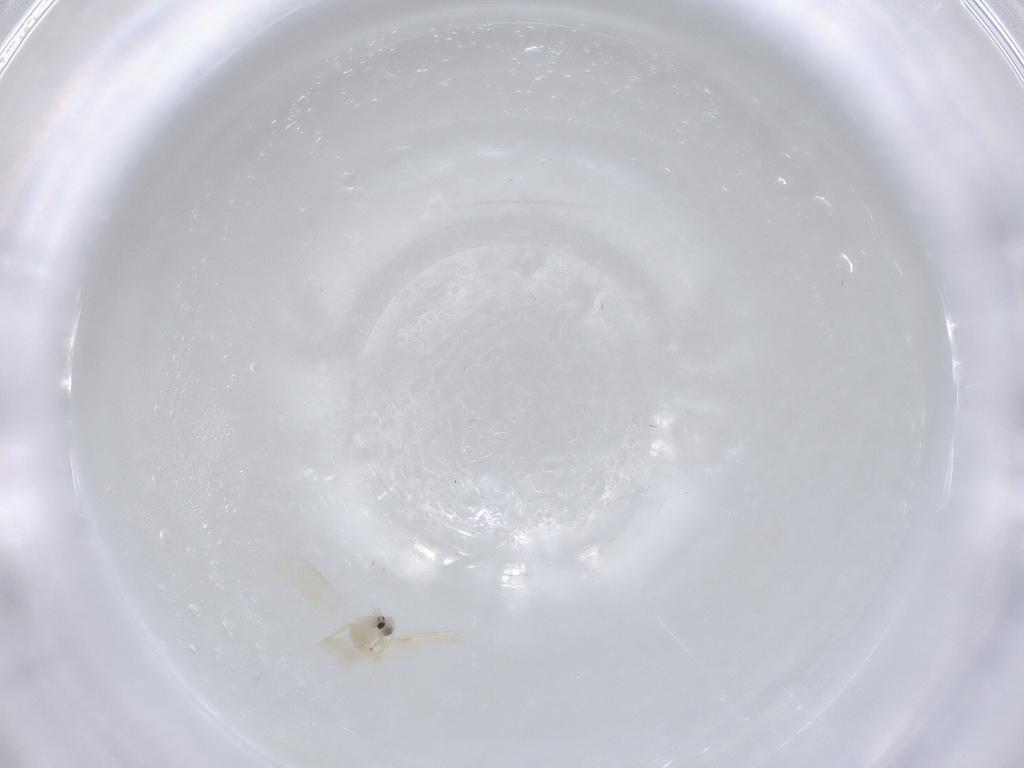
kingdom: Animalia
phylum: Arthropoda
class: Insecta
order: Hemiptera
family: Aleyrodidae
